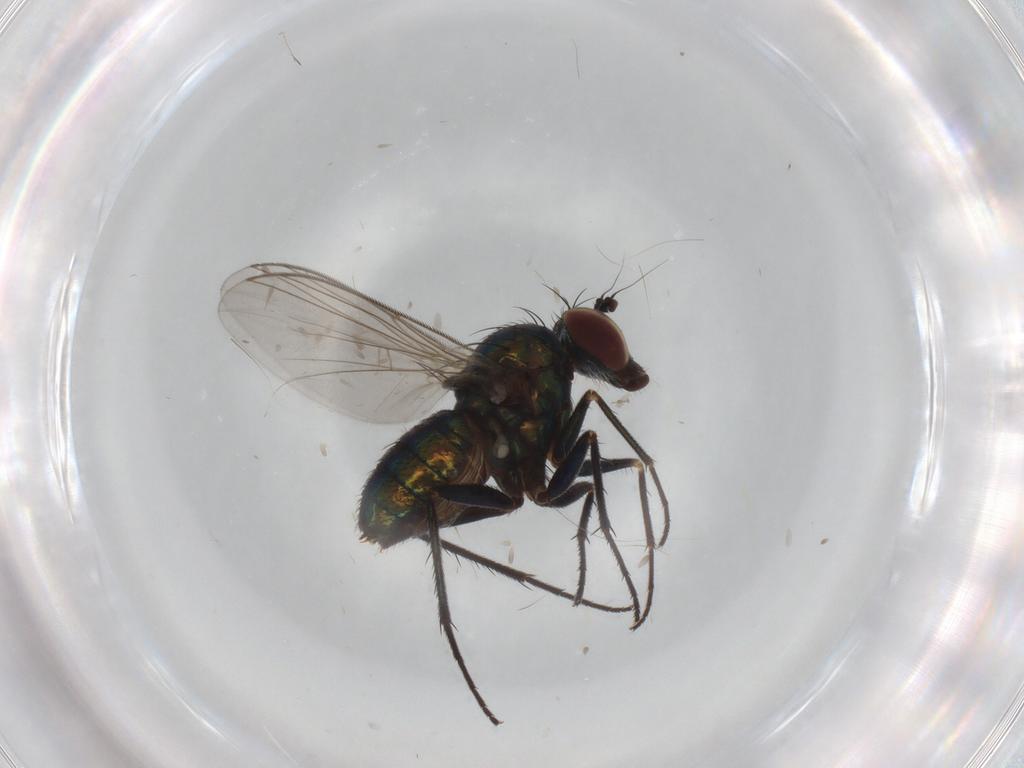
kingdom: Animalia
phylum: Arthropoda
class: Insecta
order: Diptera
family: Dolichopodidae
